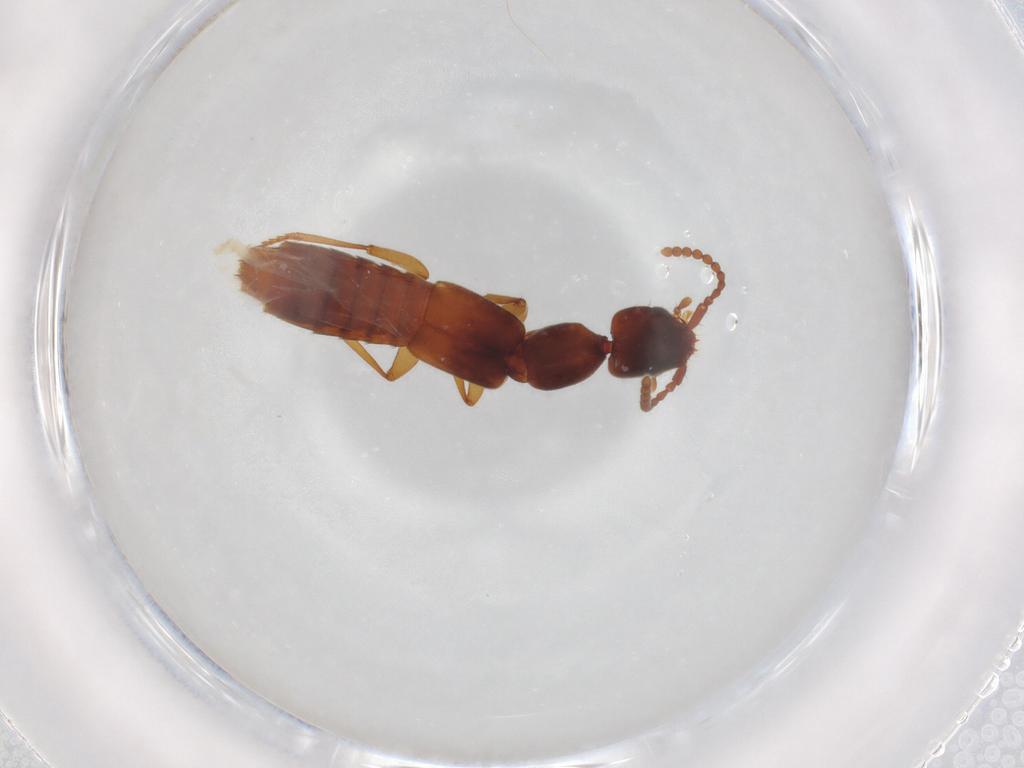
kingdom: Animalia
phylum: Arthropoda
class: Insecta
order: Coleoptera
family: Staphylinidae
